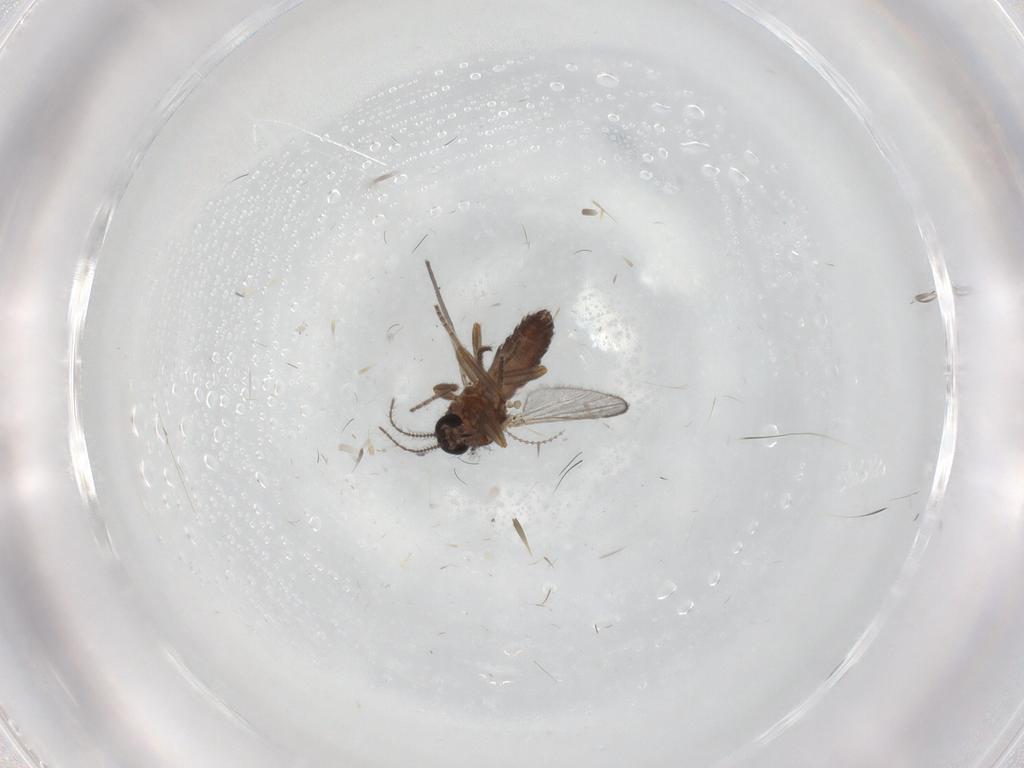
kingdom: Animalia
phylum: Arthropoda
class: Insecta
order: Diptera
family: Ceratopogonidae
